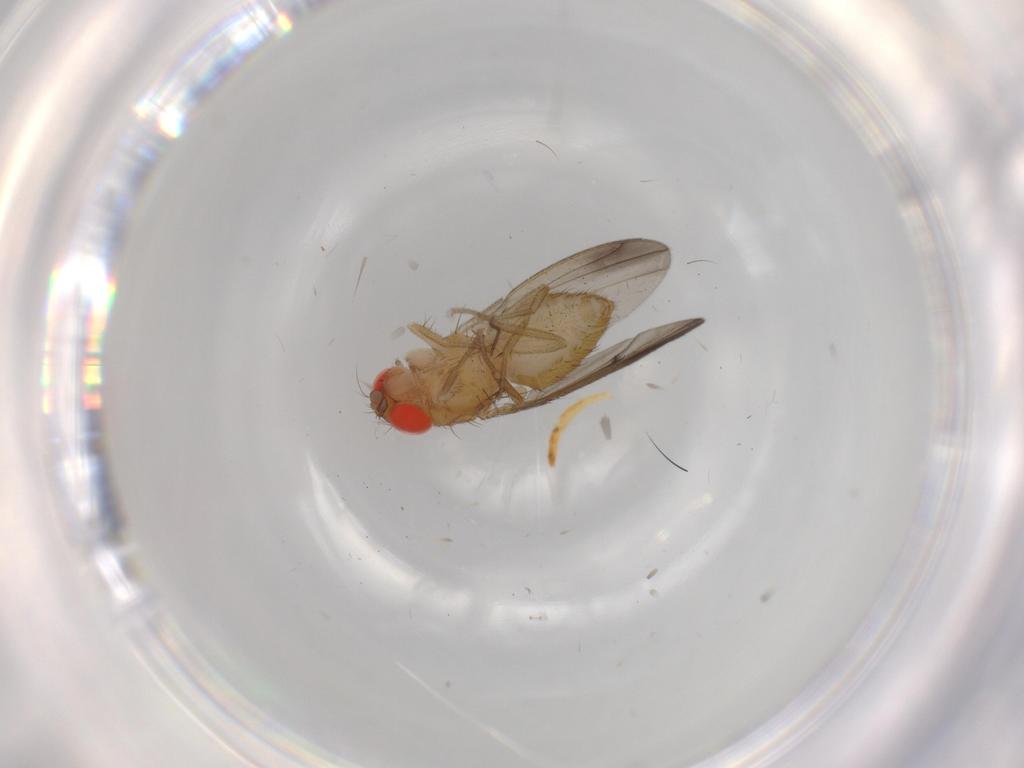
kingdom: Animalia
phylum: Arthropoda
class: Insecta
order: Diptera
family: Drosophilidae
